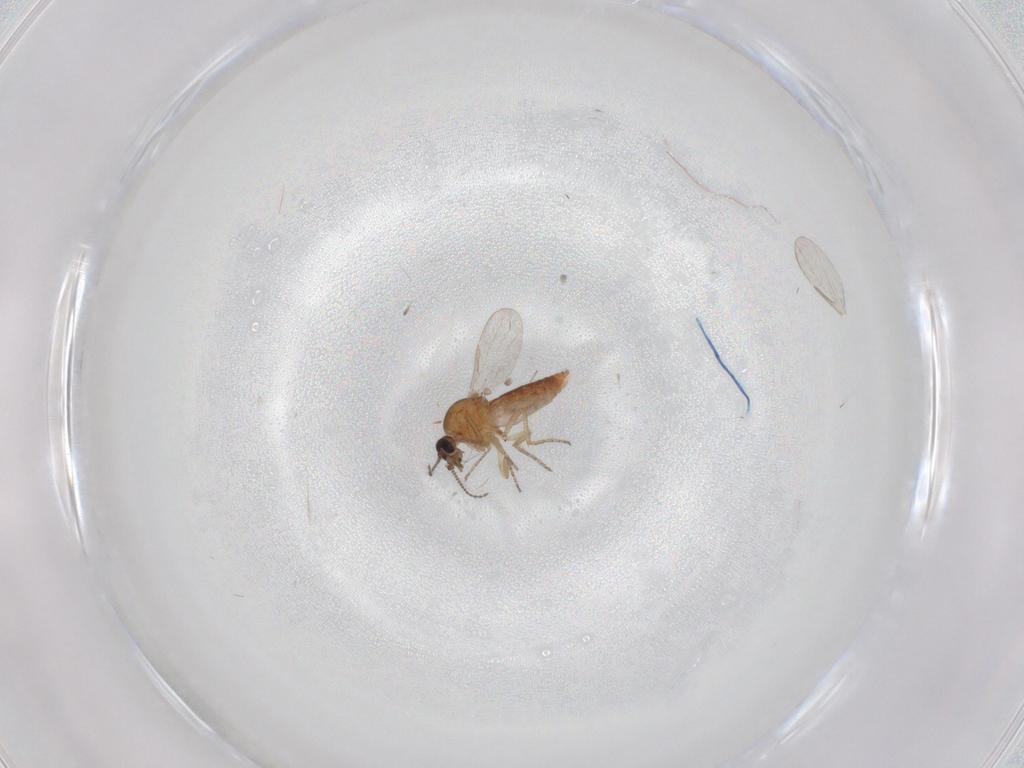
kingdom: Animalia
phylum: Arthropoda
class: Insecta
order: Diptera
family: Ceratopogonidae
